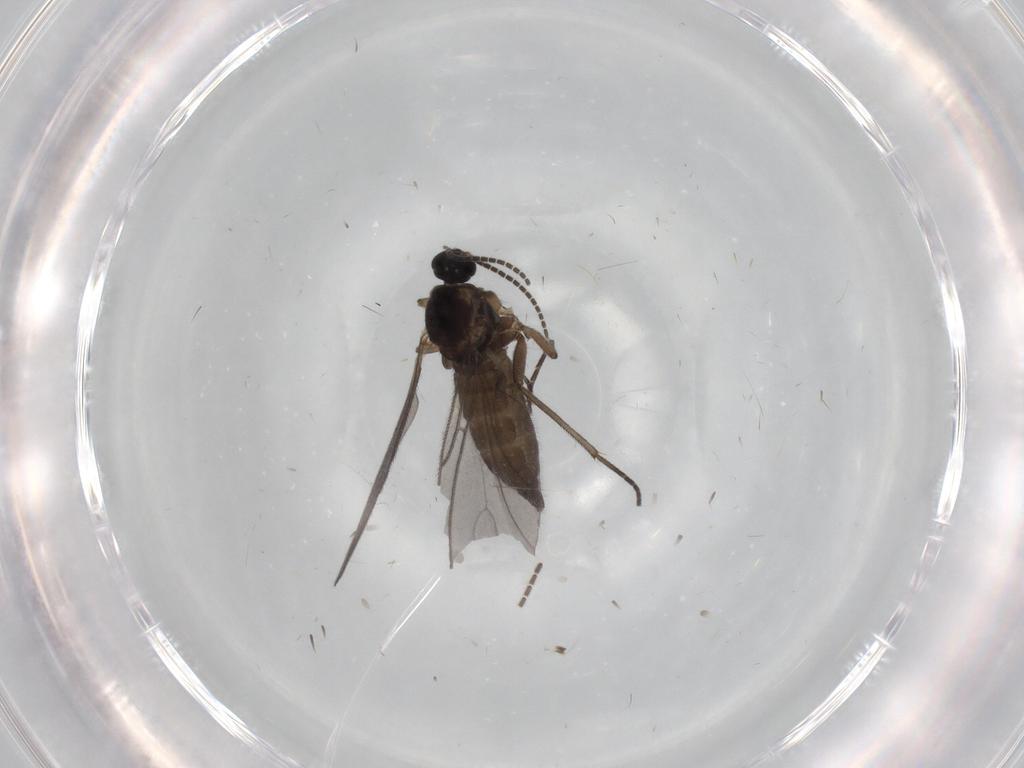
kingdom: Animalia
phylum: Arthropoda
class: Insecta
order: Diptera
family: Sciaridae
